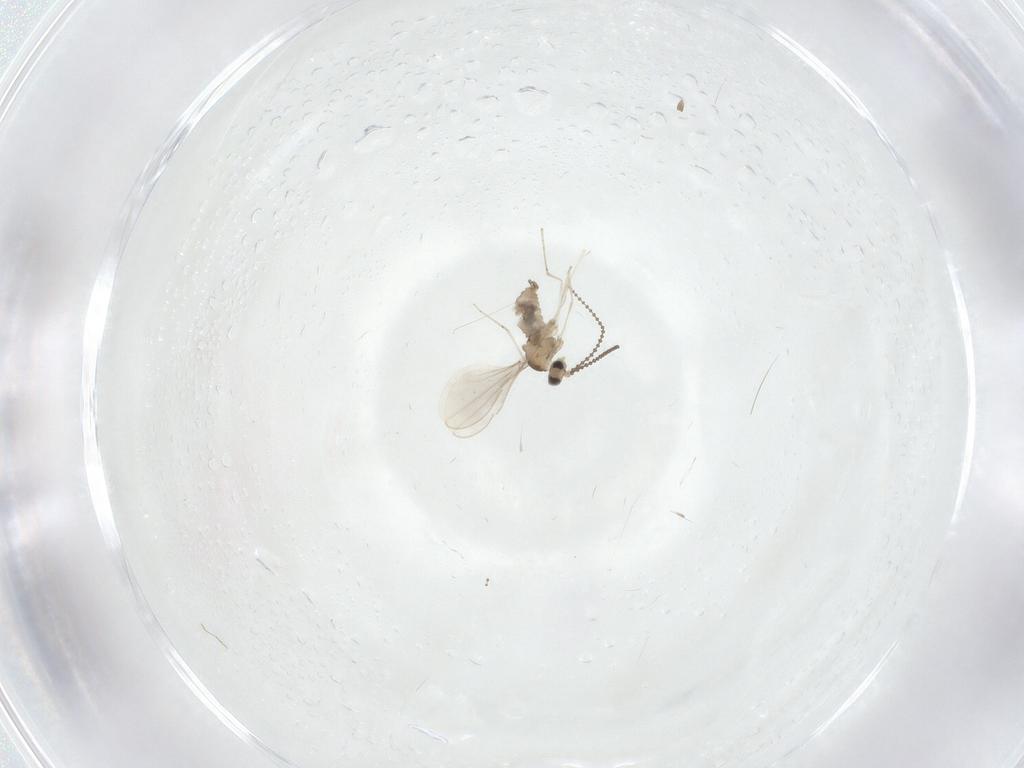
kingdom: Animalia
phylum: Arthropoda
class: Insecta
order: Diptera
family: Cecidomyiidae
